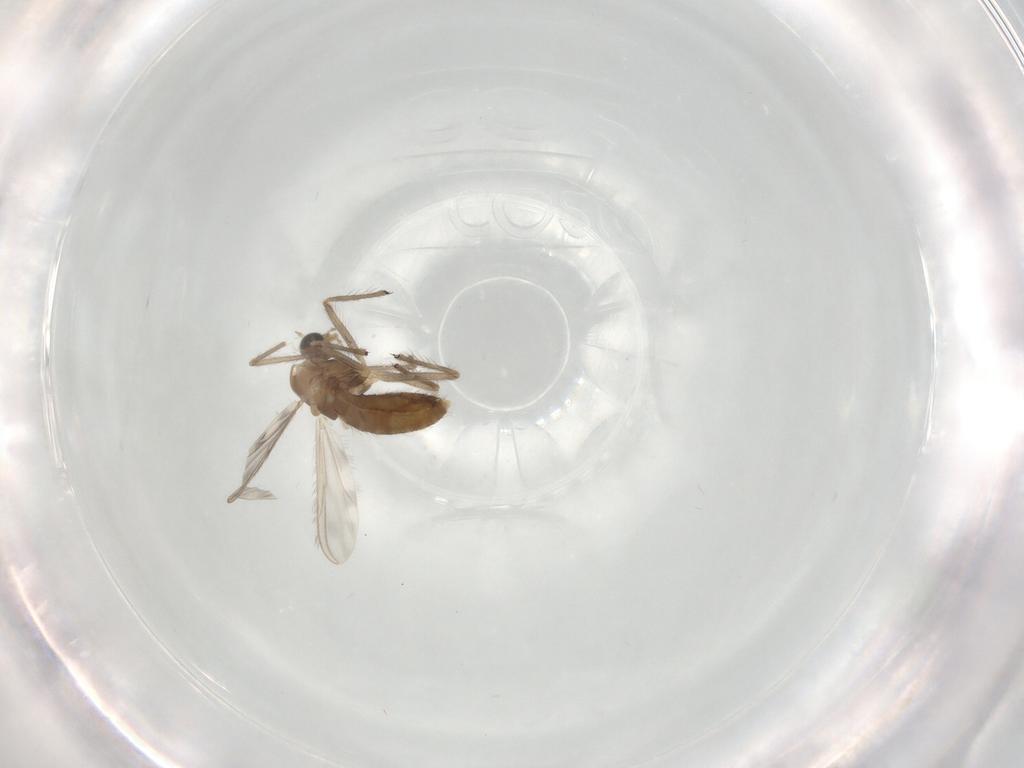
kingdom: Animalia
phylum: Arthropoda
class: Insecta
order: Diptera
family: Chironomidae
